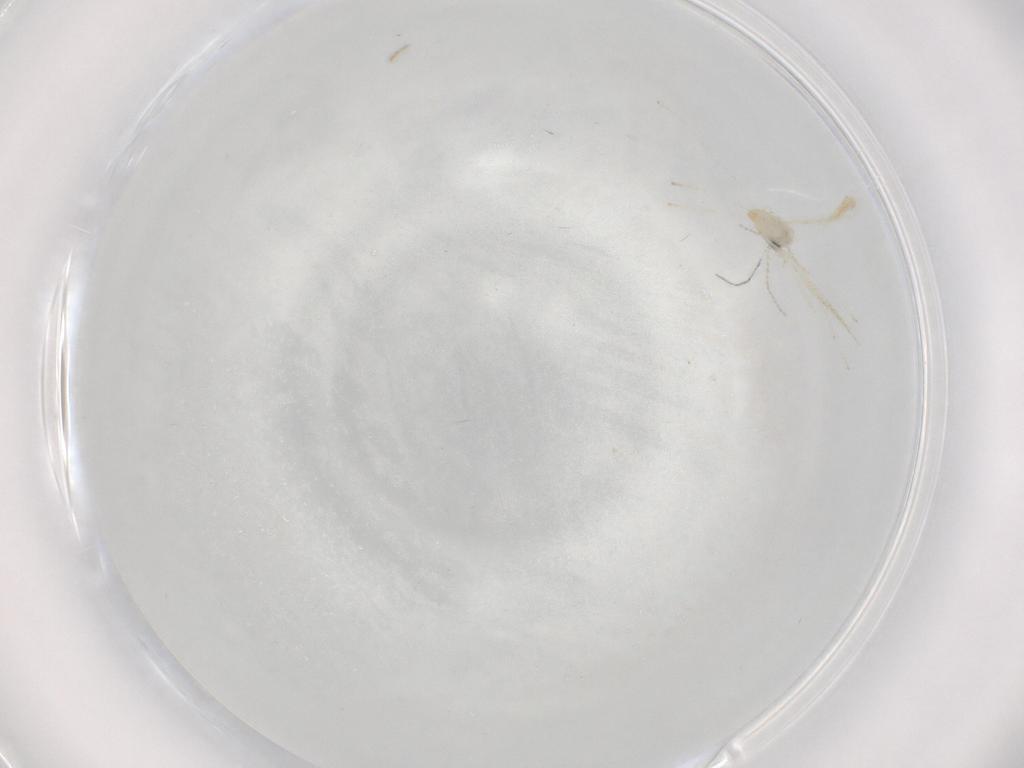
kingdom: Animalia
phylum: Arthropoda
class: Insecta
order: Diptera
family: Cecidomyiidae
